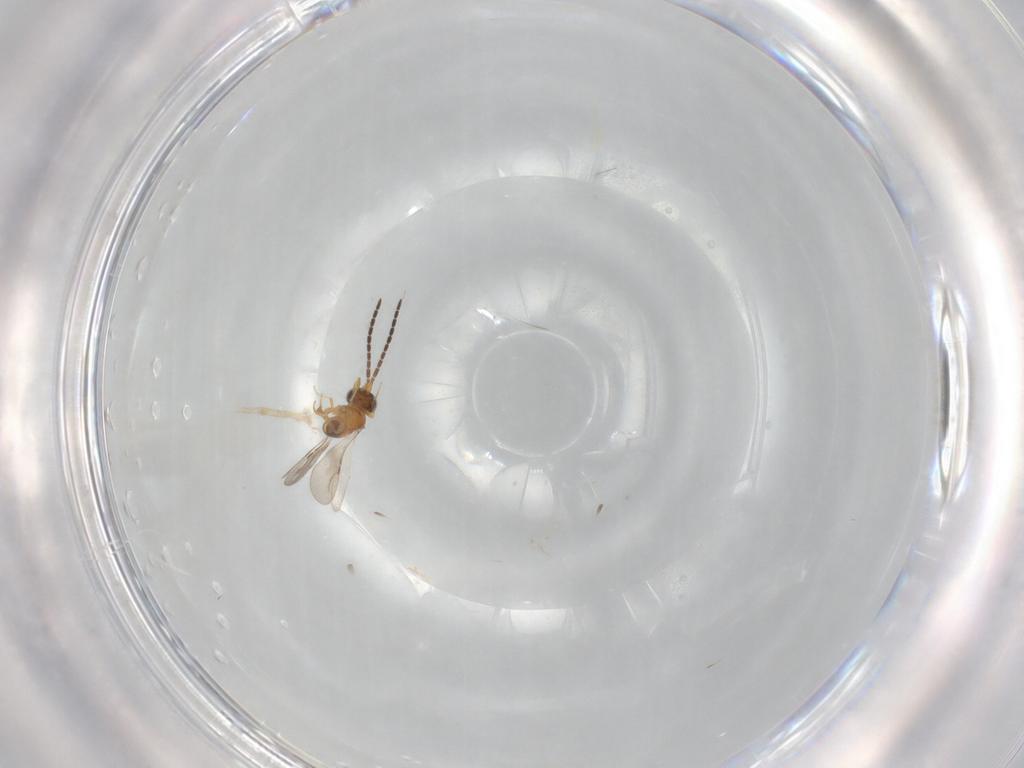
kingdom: Animalia
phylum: Arthropoda
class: Insecta
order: Hymenoptera
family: Ceraphronidae
